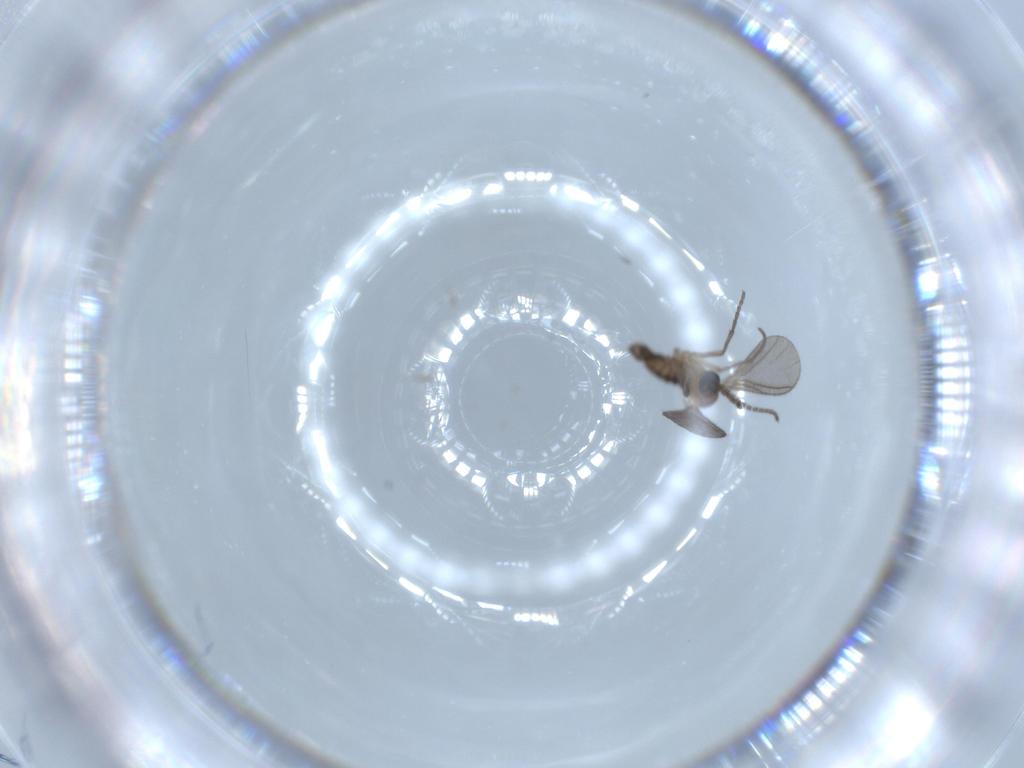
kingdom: Animalia
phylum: Arthropoda
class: Insecta
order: Diptera
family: Sciaridae
